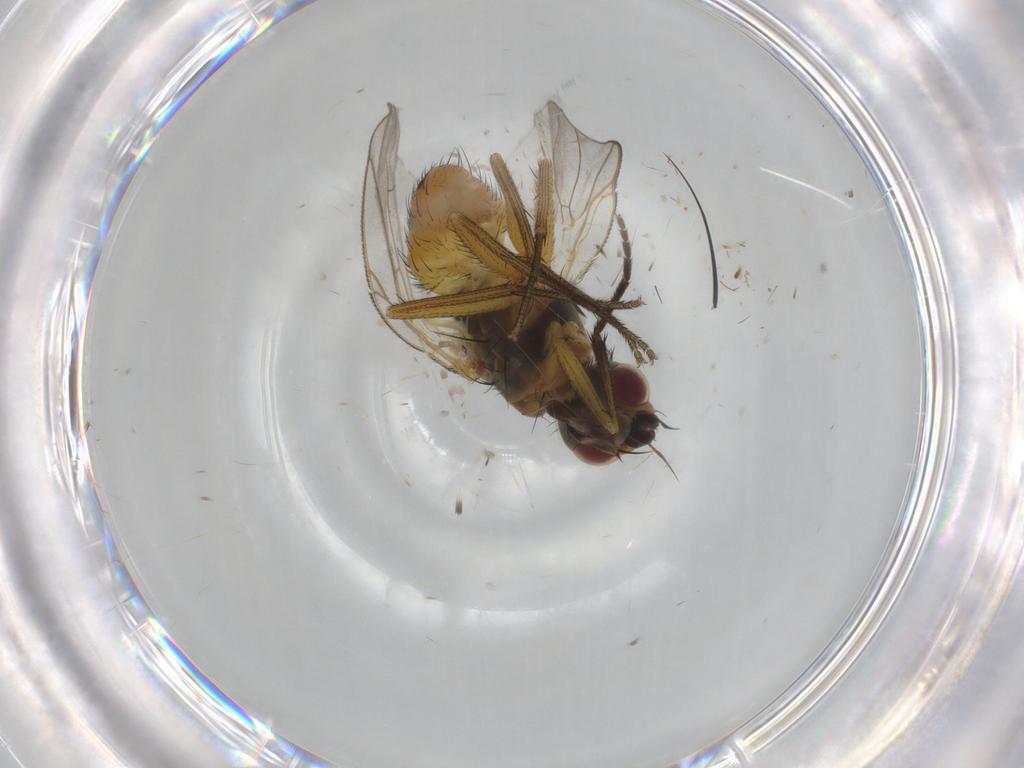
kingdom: Animalia
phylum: Arthropoda
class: Insecta
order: Diptera
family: Muscidae
